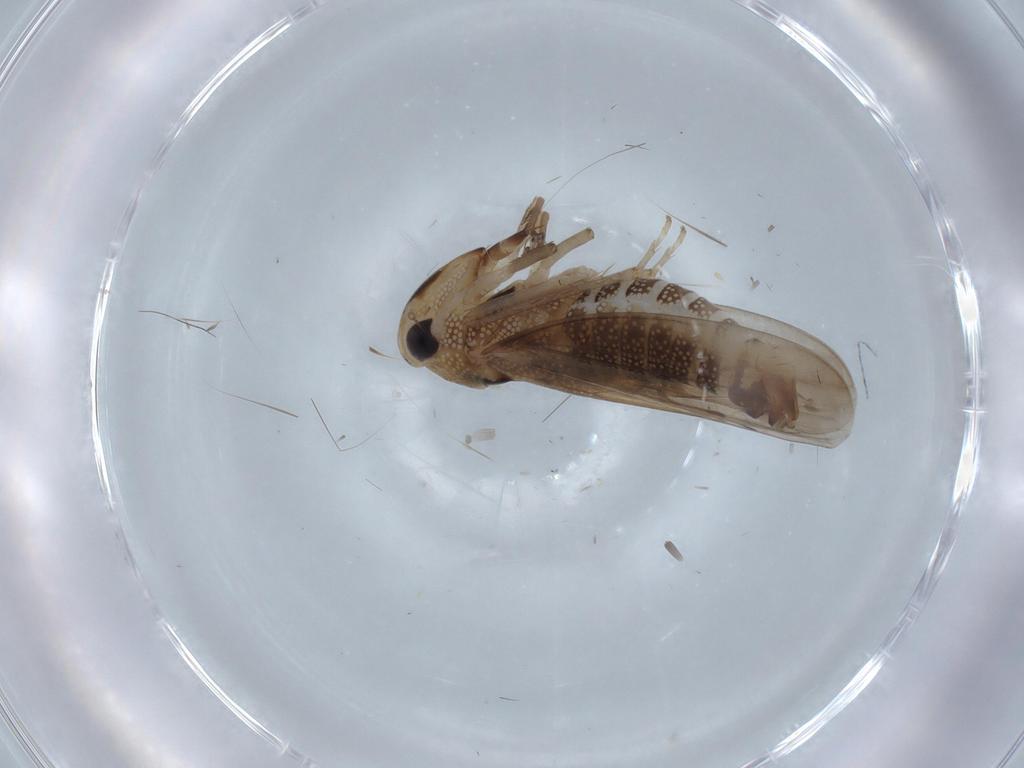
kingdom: Animalia
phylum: Arthropoda
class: Insecta
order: Hemiptera
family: Cicadellidae
